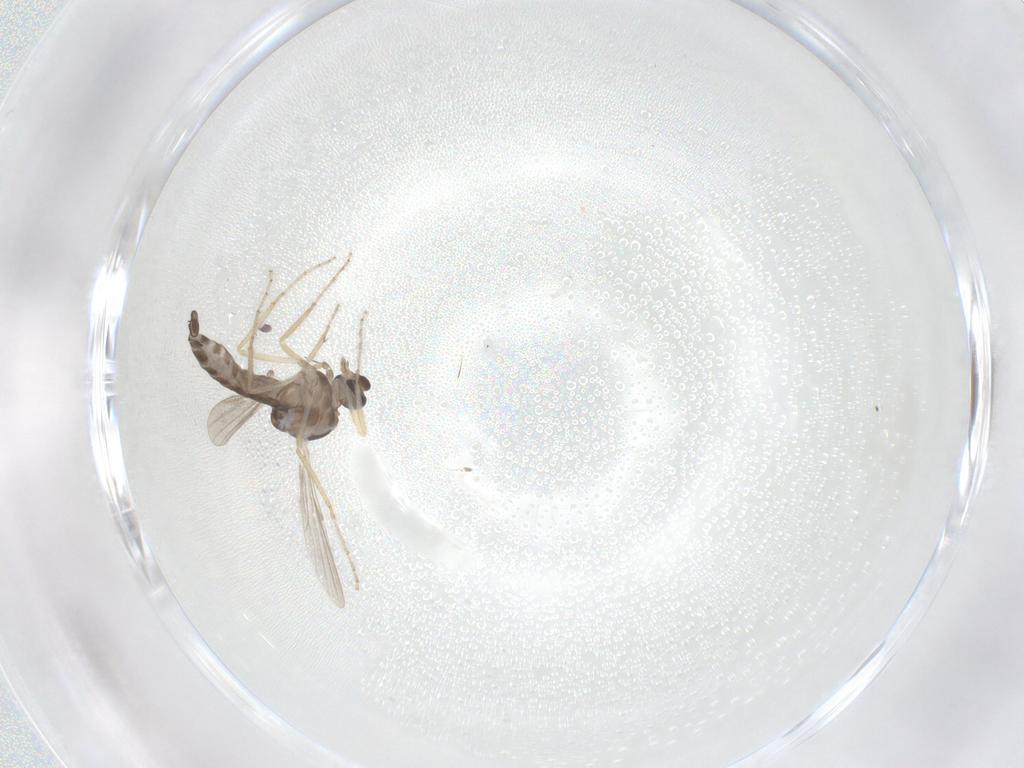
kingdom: Animalia
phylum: Arthropoda
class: Insecta
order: Diptera
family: Ceratopogonidae
